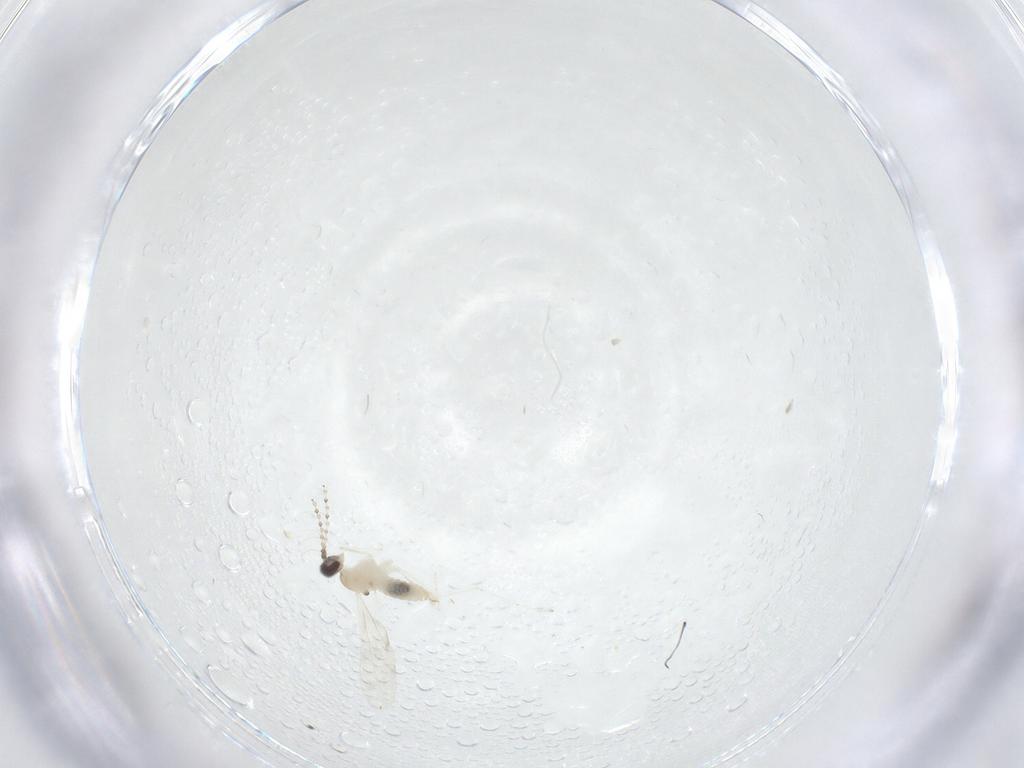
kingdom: Animalia
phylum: Arthropoda
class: Insecta
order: Diptera
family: Cecidomyiidae
